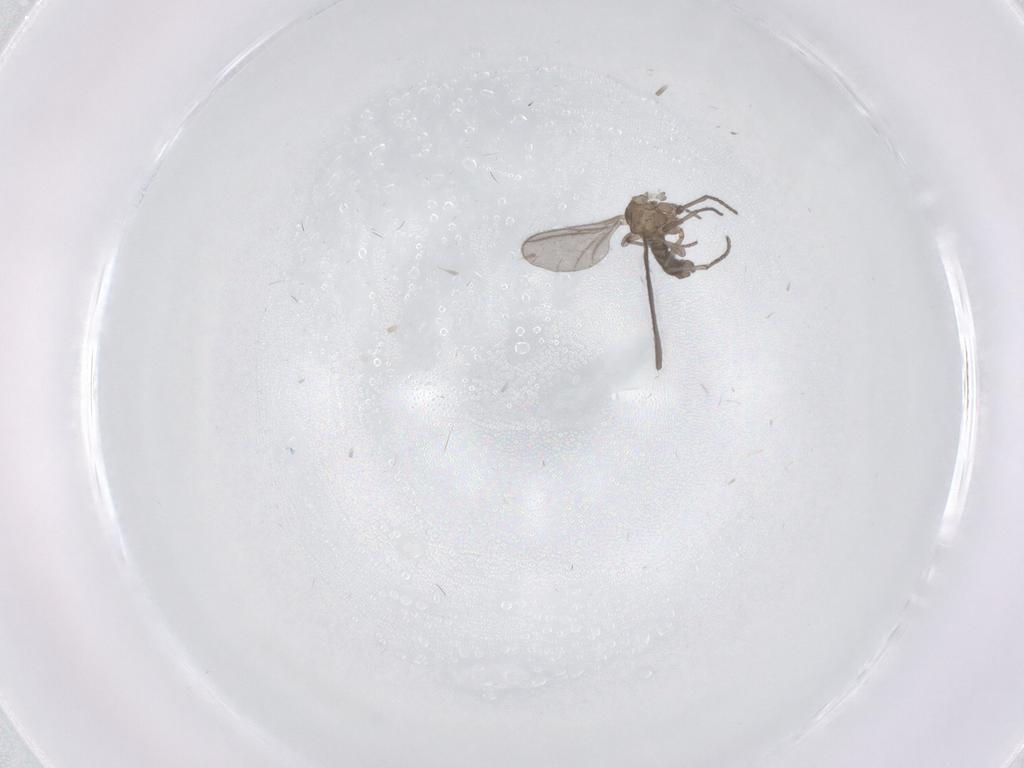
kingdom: Animalia
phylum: Arthropoda
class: Insecta
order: Diptera
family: Sciaridae
